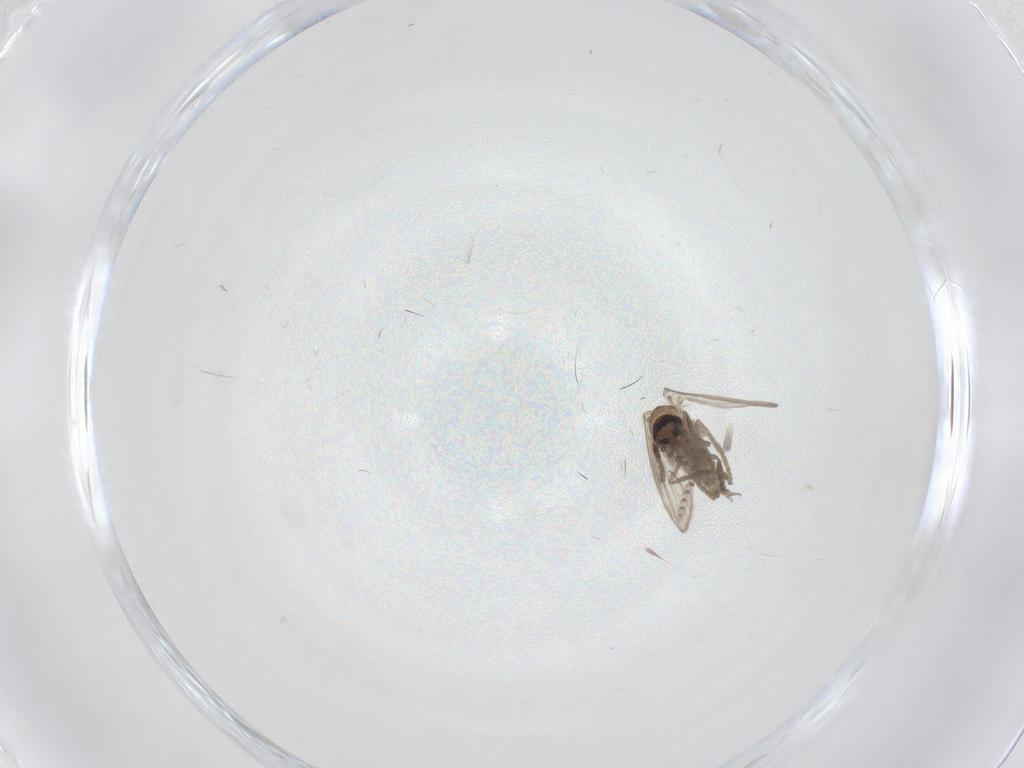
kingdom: Animalia
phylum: Arthropoda
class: Insecta
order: Diptera
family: Psychodidae
